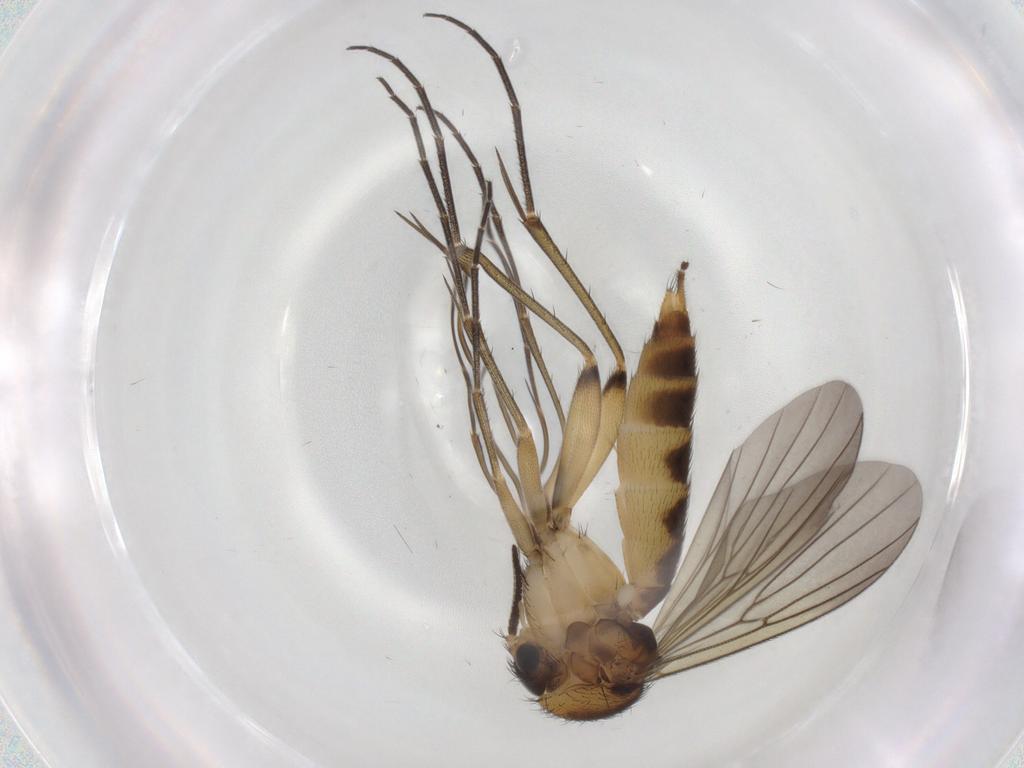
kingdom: Animalia
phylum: Arthropoda
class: Insecta
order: Diptera
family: Mycetophilidae
